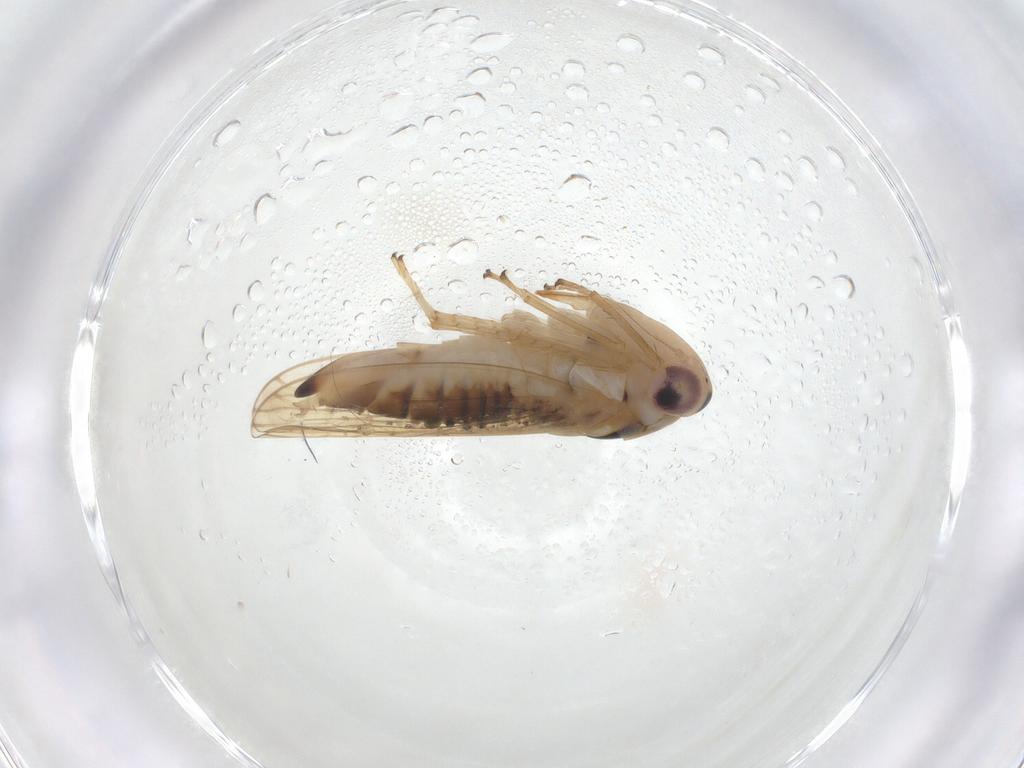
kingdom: Animalia
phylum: Arthropoda
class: Insecta
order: Hemiptera
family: Cicadellidae
